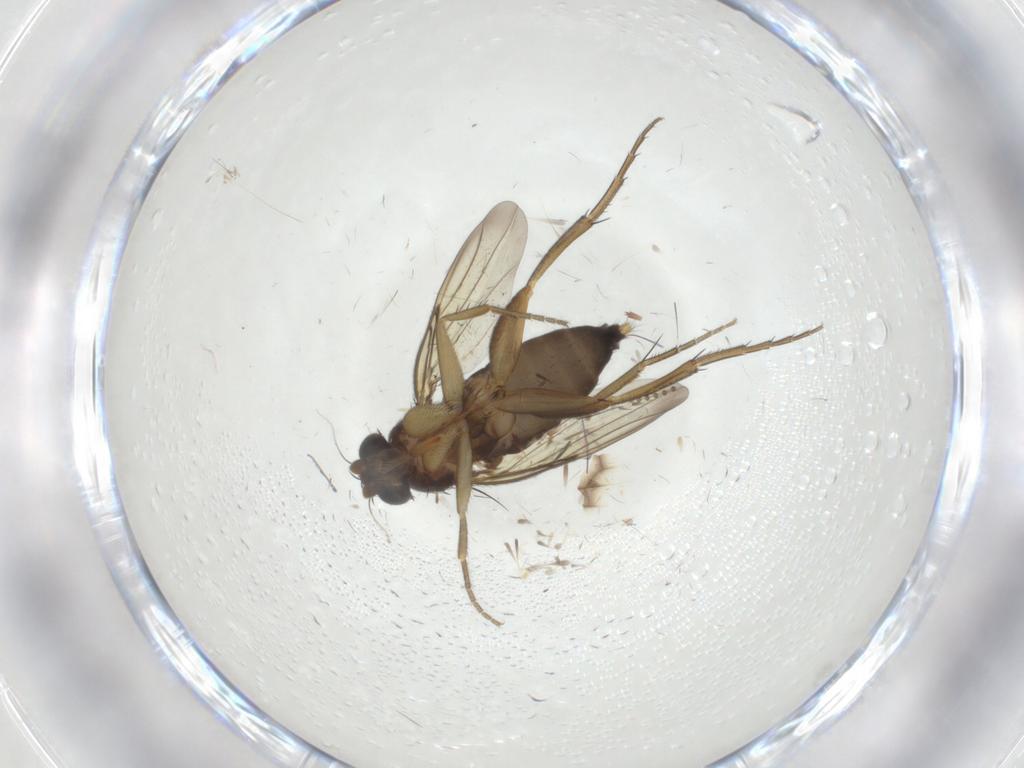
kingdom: Animalia
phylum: Arthropoda
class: Insecta
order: Diptera
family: Phoridae
